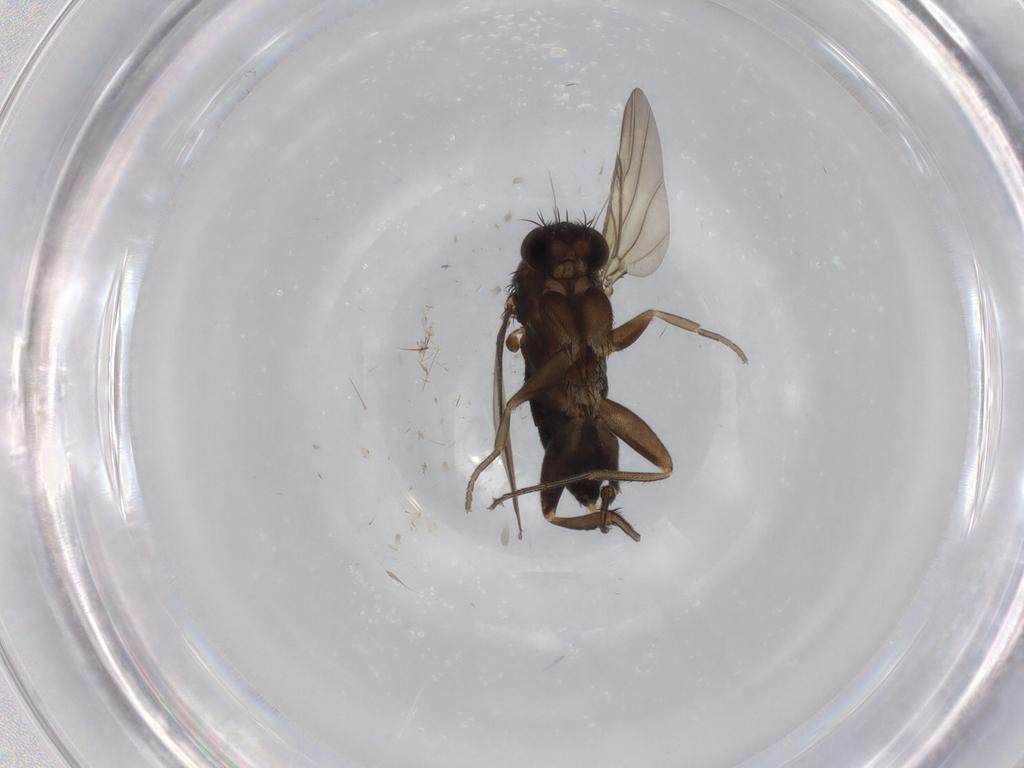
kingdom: Animalia
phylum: Arthropoda
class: Insecta
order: Diptera
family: Phoridae
